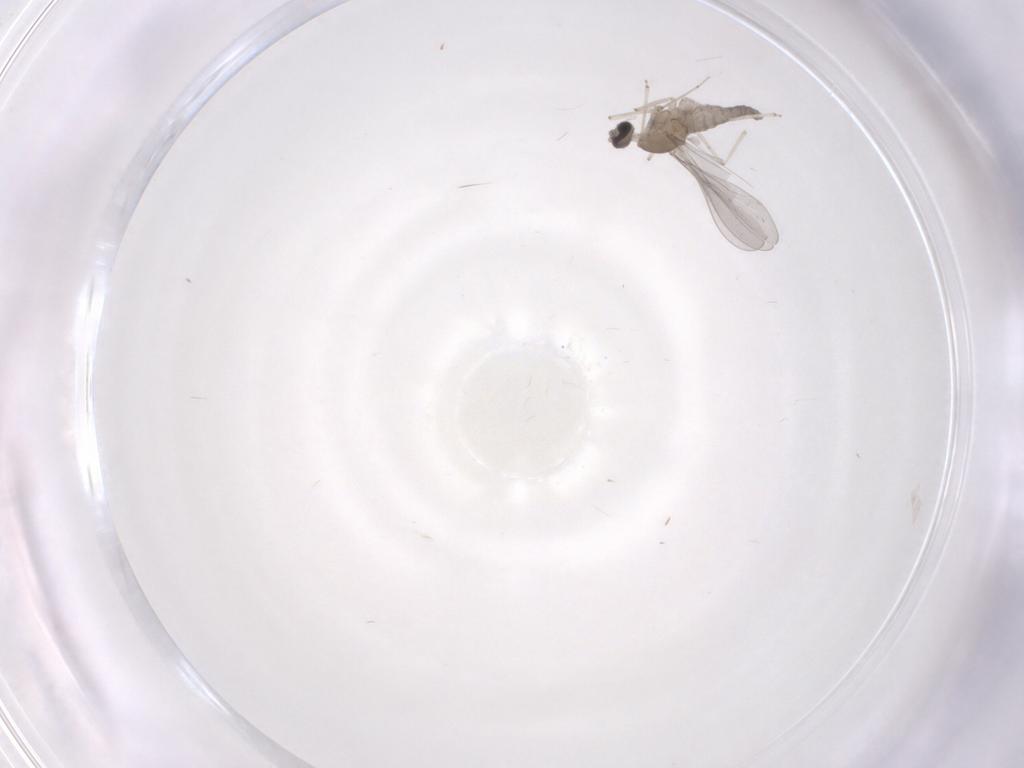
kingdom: Animalia
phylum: Arthropoda
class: Insecta
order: Diptera
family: Cecidomyiidae
